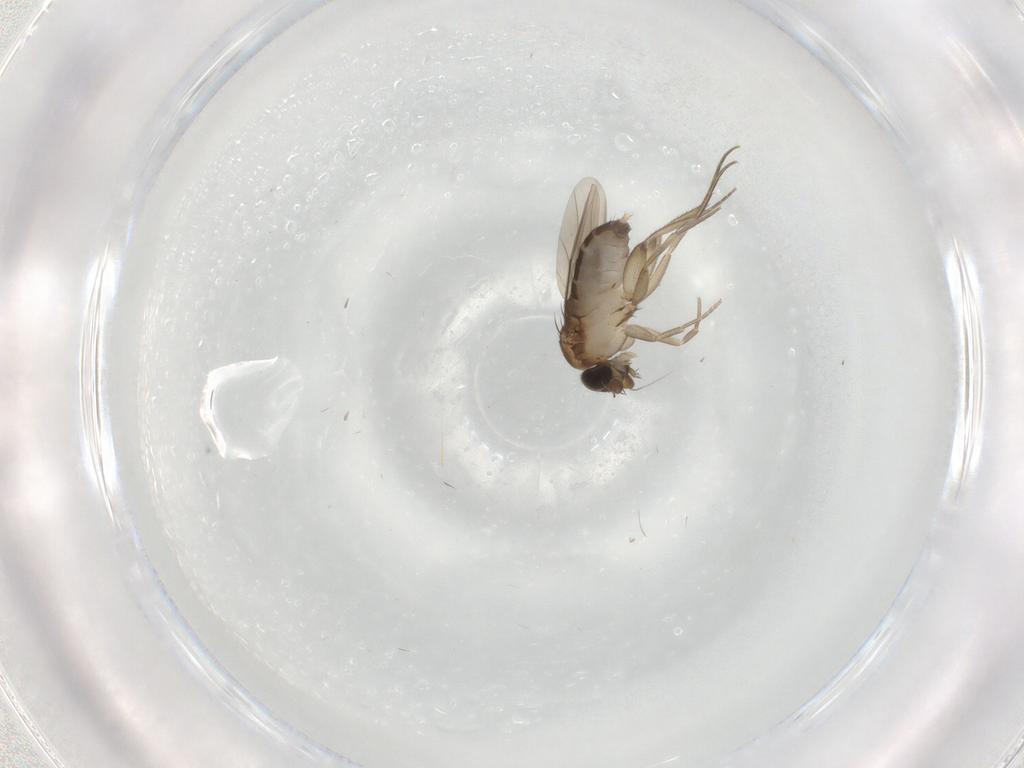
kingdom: Animalia
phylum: Arthropoda
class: Insecta
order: Diptera
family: Phoridae
